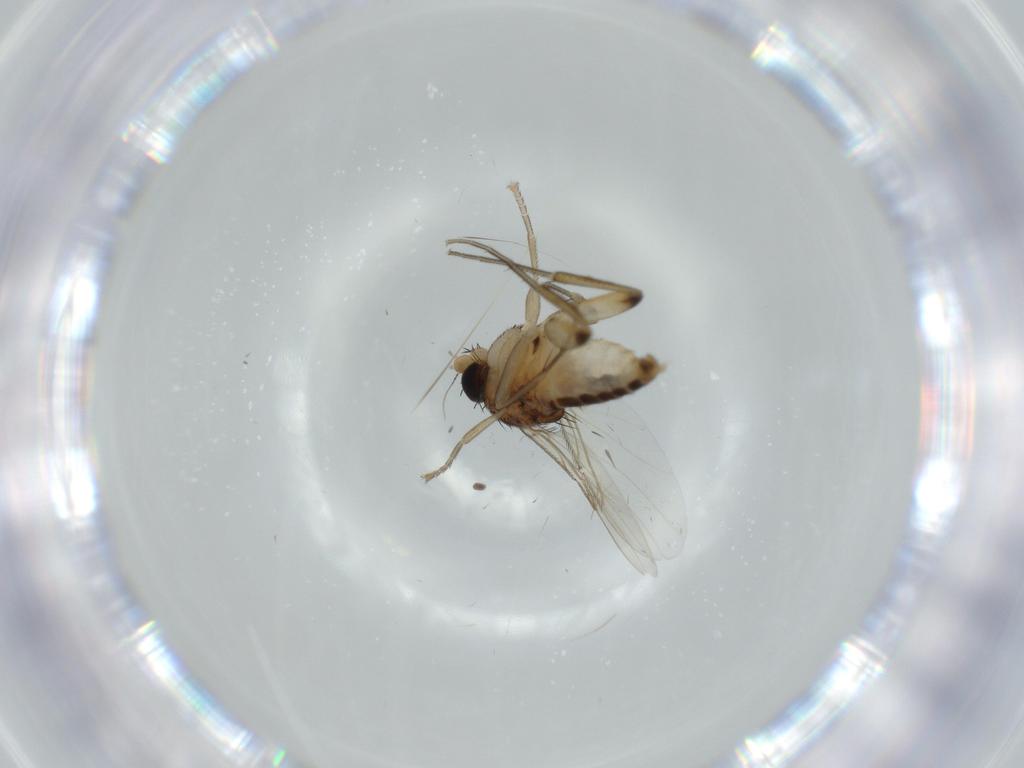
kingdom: Animalia
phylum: Arthropoda
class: Insecta
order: Diptera
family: Phoridae
